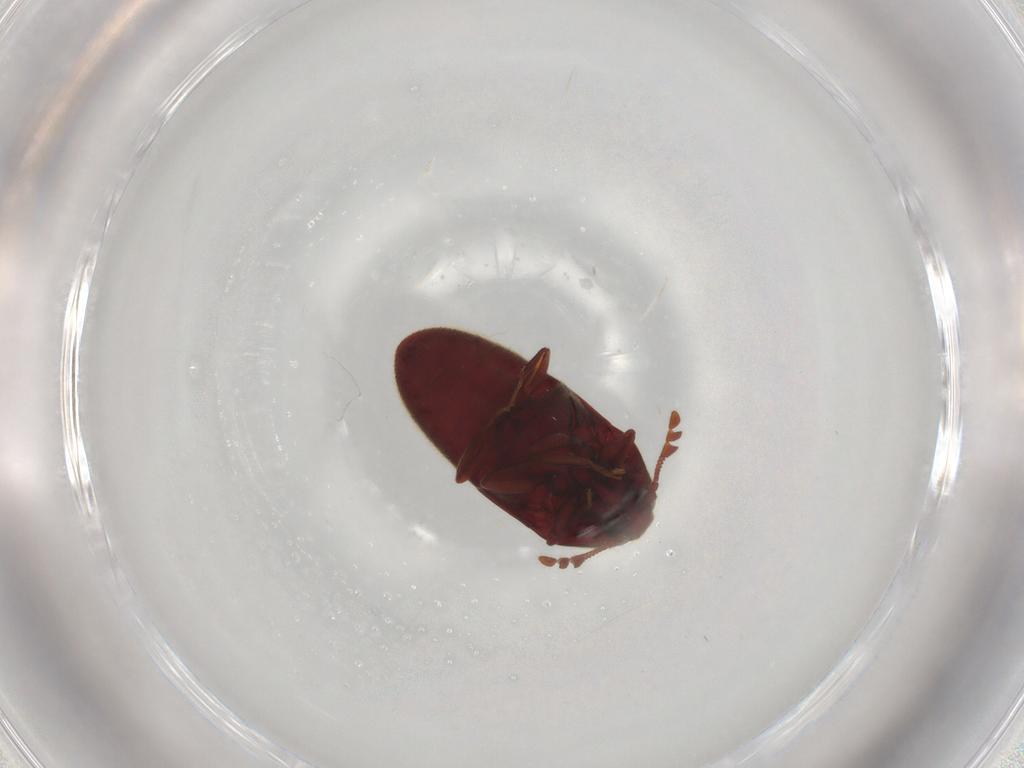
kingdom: Animalia
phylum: Arthropoda
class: Insecta
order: Coleoptera
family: Throscidae
